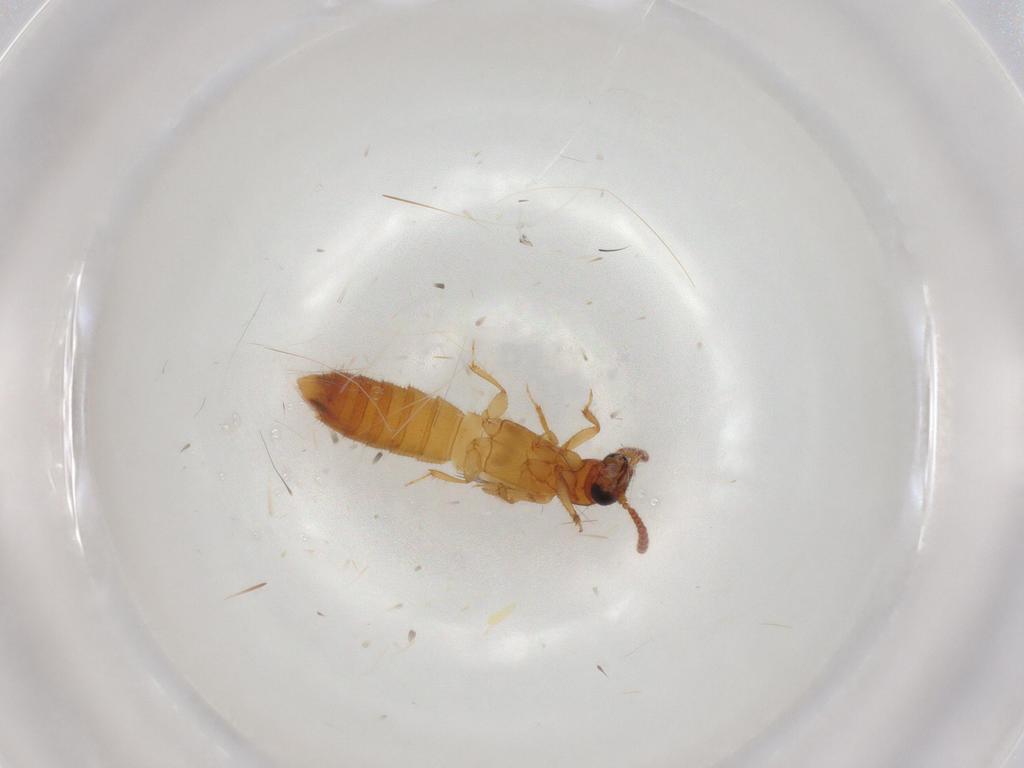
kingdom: Animalia
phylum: Arthropoda
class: Insecta
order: Coleoptera
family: Staphylinidae
